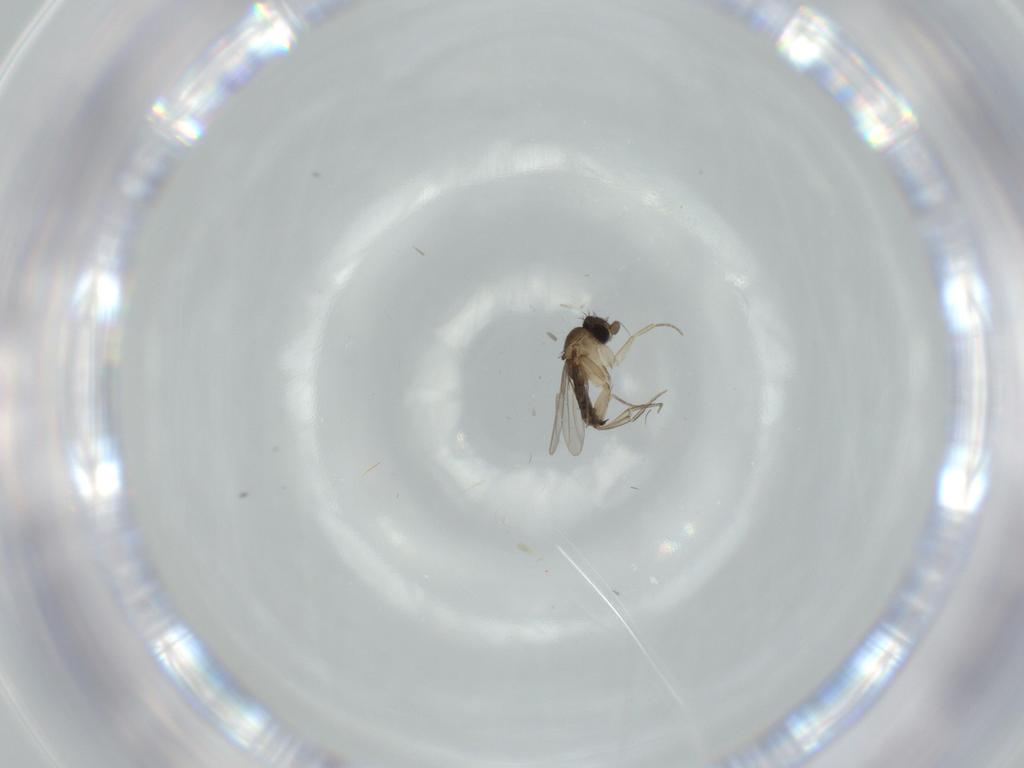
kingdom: Animalia
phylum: Arthropoda
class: Insecta
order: Diptera
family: Phoridae
